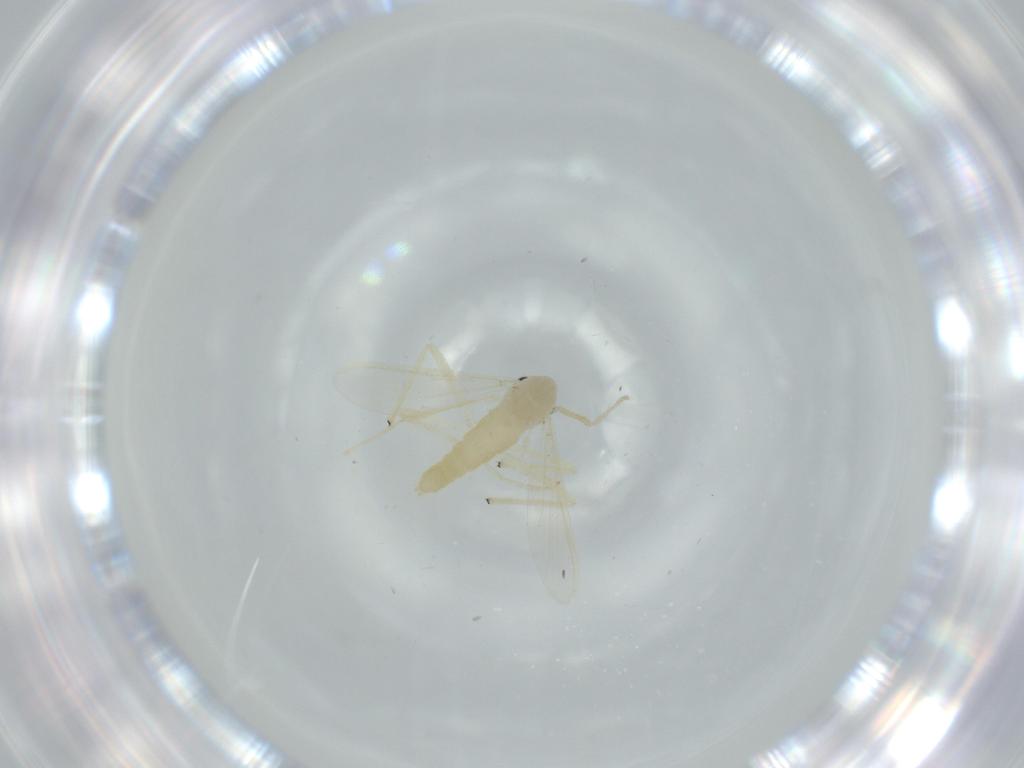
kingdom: Animalia
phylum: Arthropoda
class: Insecta
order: Diptera
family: Chironomidae
